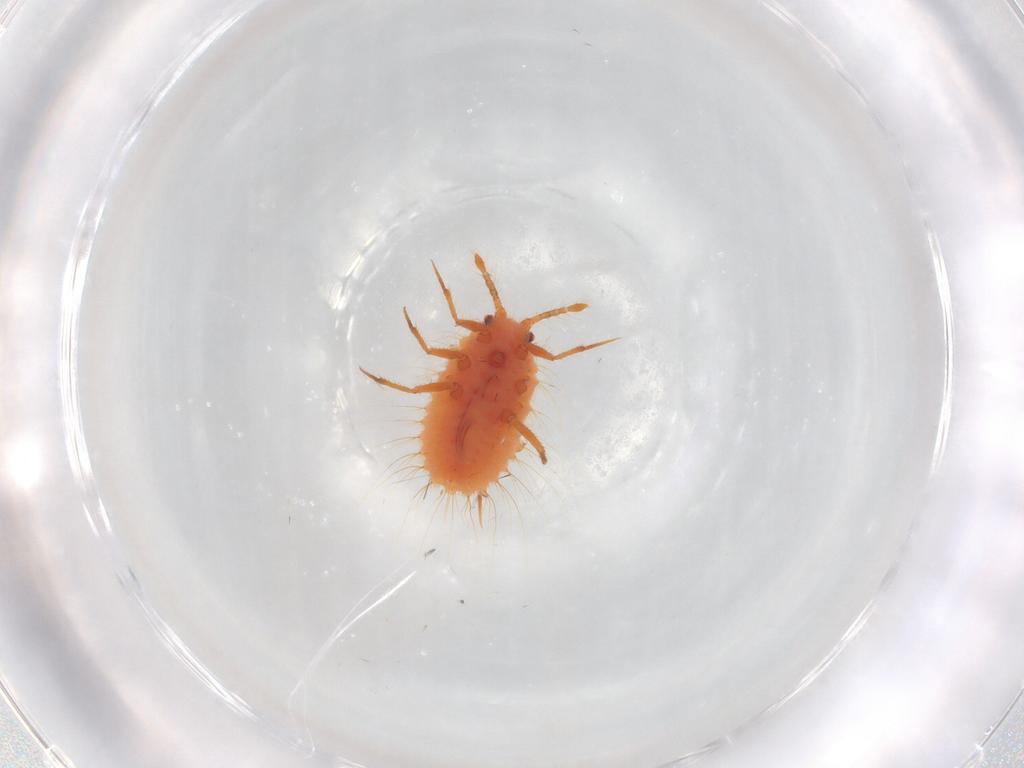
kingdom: Animalia
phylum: Arthropoda
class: Insecta
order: Hemiptera
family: Coccoidea_incertae_sedis
